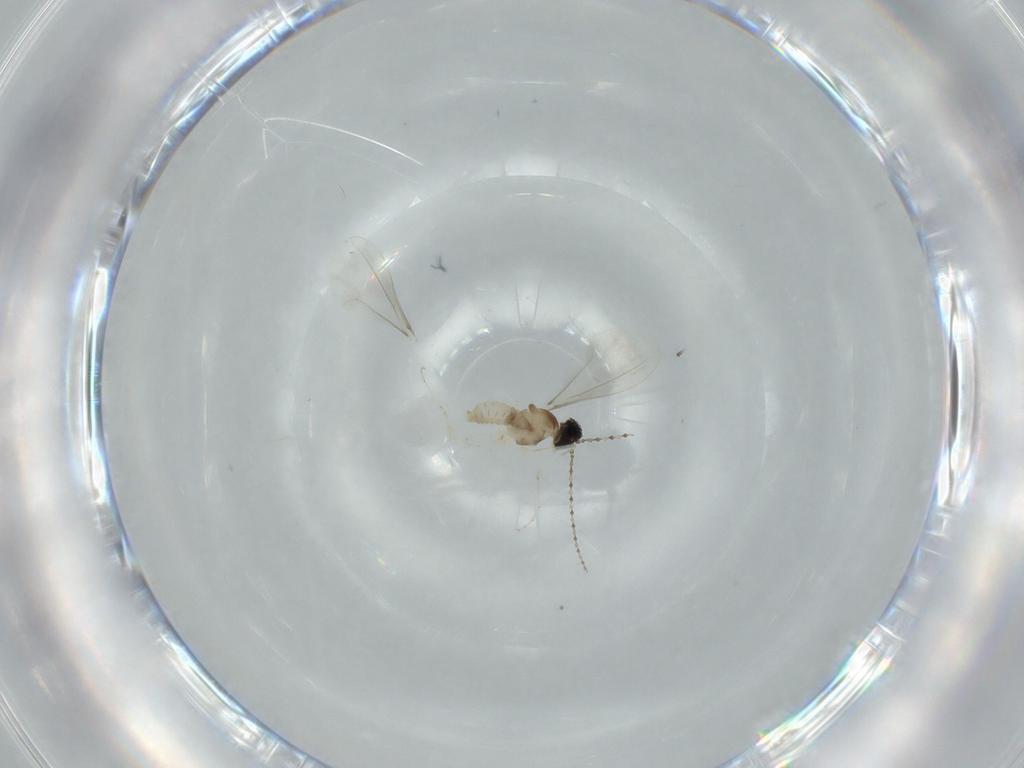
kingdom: Animalia
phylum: Arthropoda
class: Insecta
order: Diptera
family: Cecidomyiidae
